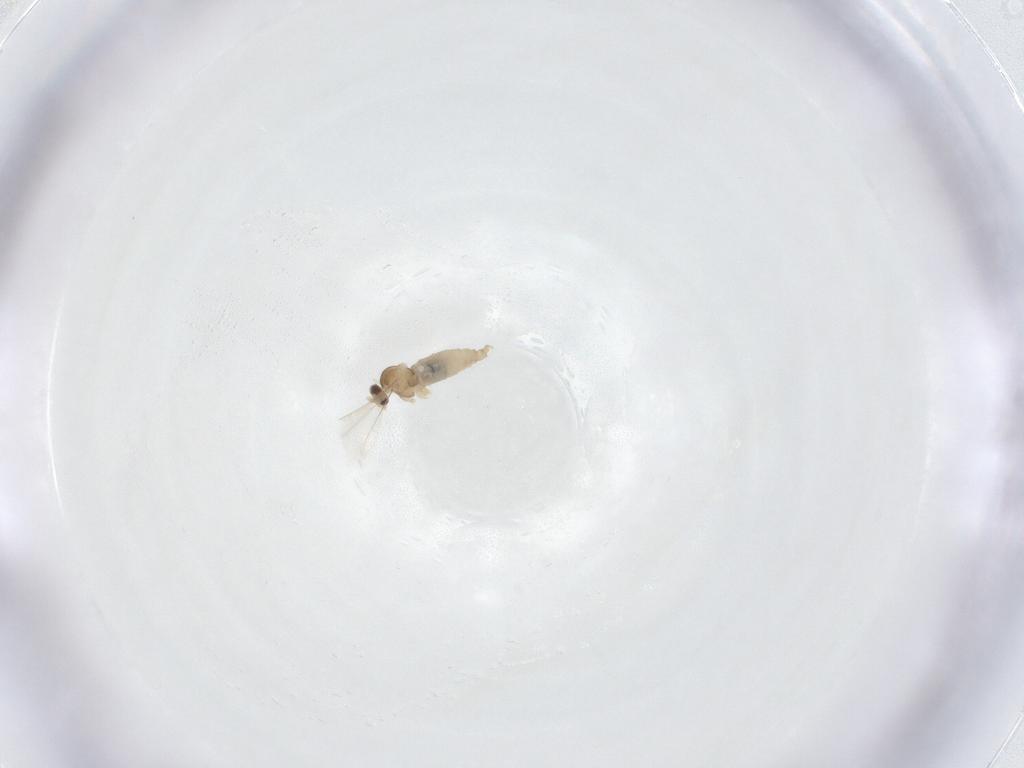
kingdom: Animalia
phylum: Arthropoda
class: Insecta
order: Diptera
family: Cecidomyiidae
